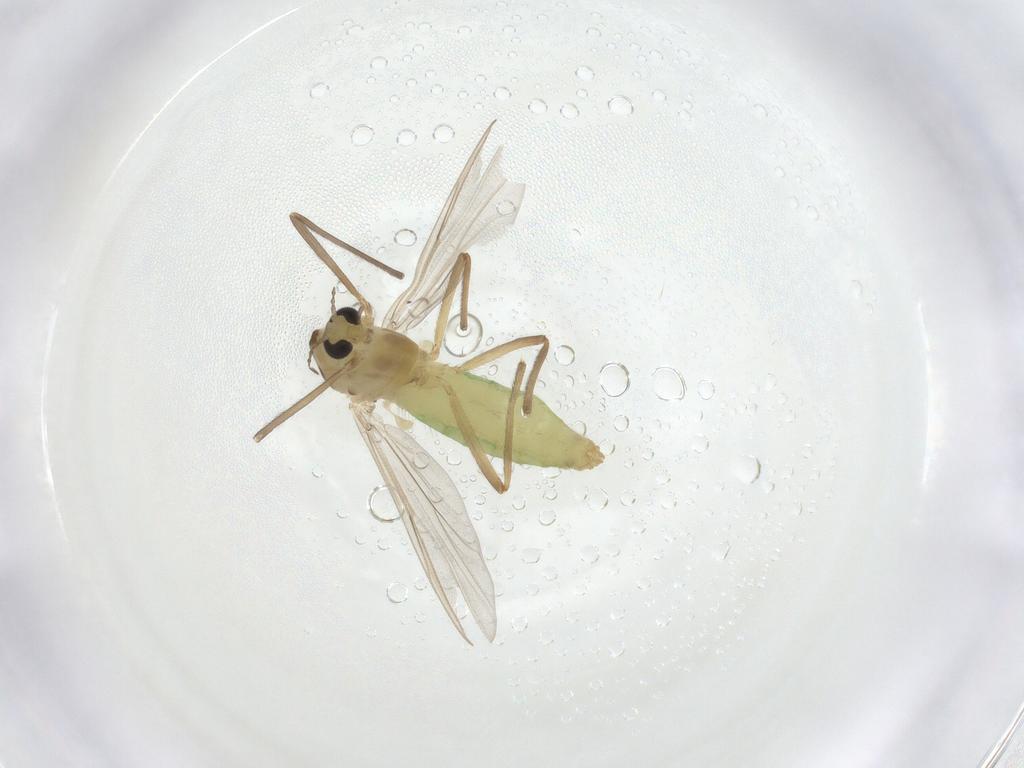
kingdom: Animalia
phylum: Arthropoda
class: Insecta
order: Diptera
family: Chironomidae
